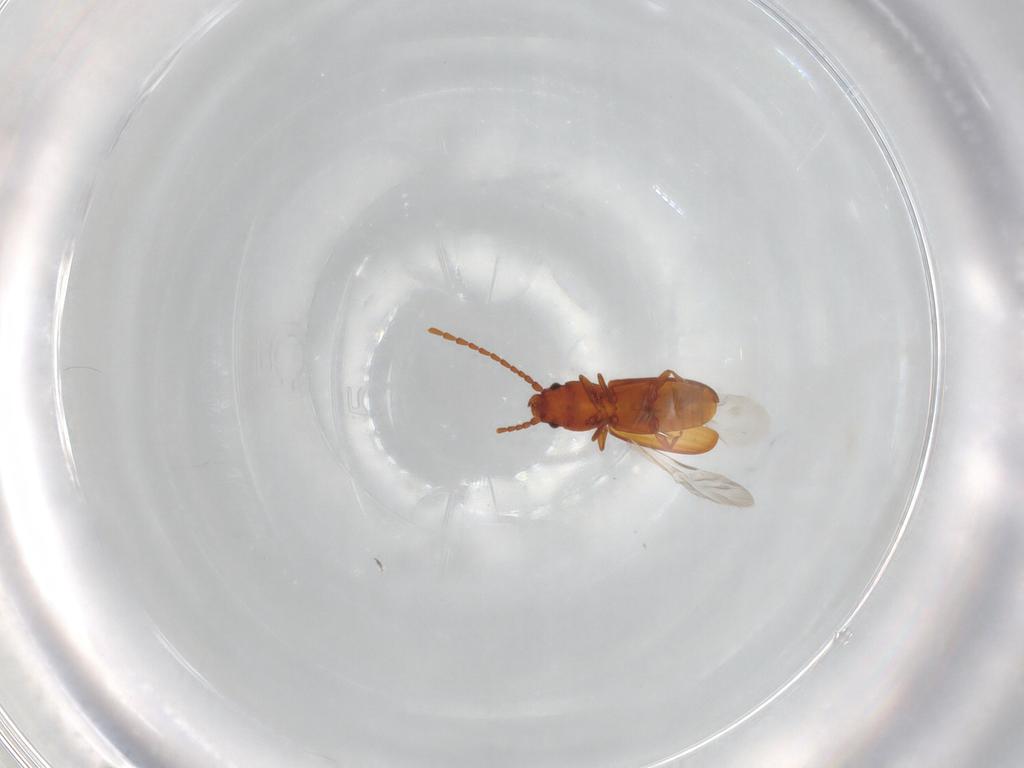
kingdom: Animalia
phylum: Arthropoda
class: Insecta
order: Coleoptera
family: Laemophloeidae
